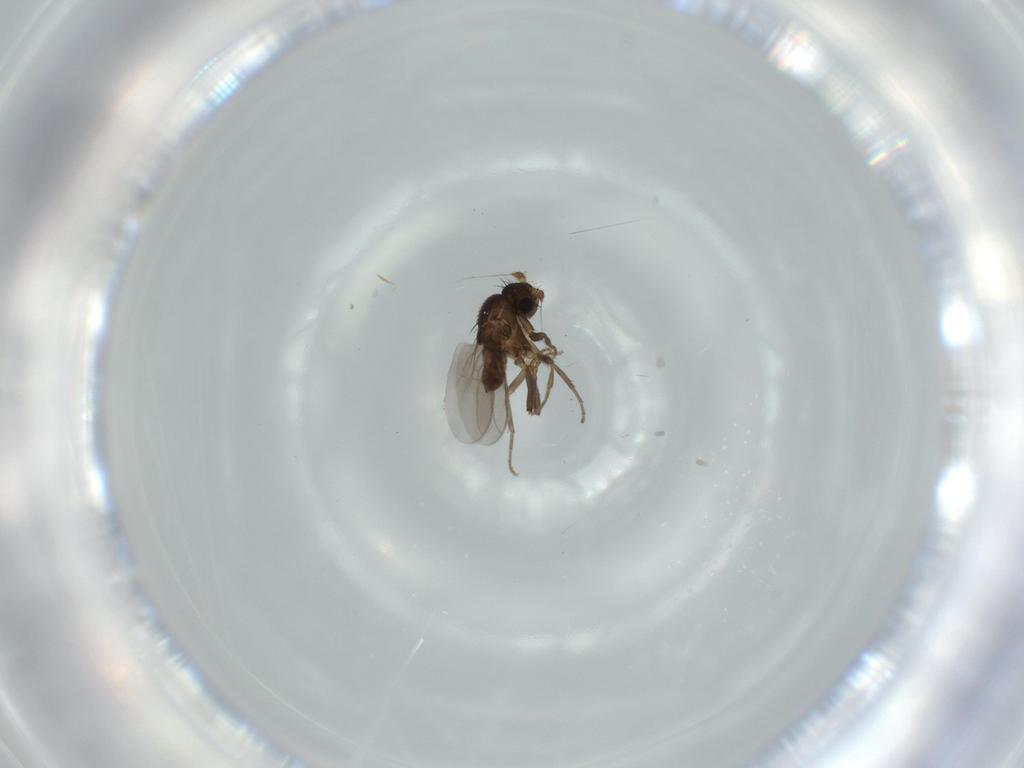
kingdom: Animalia
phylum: Arthropoda
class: Insecta
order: Diptera
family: Sphaeroceridae
